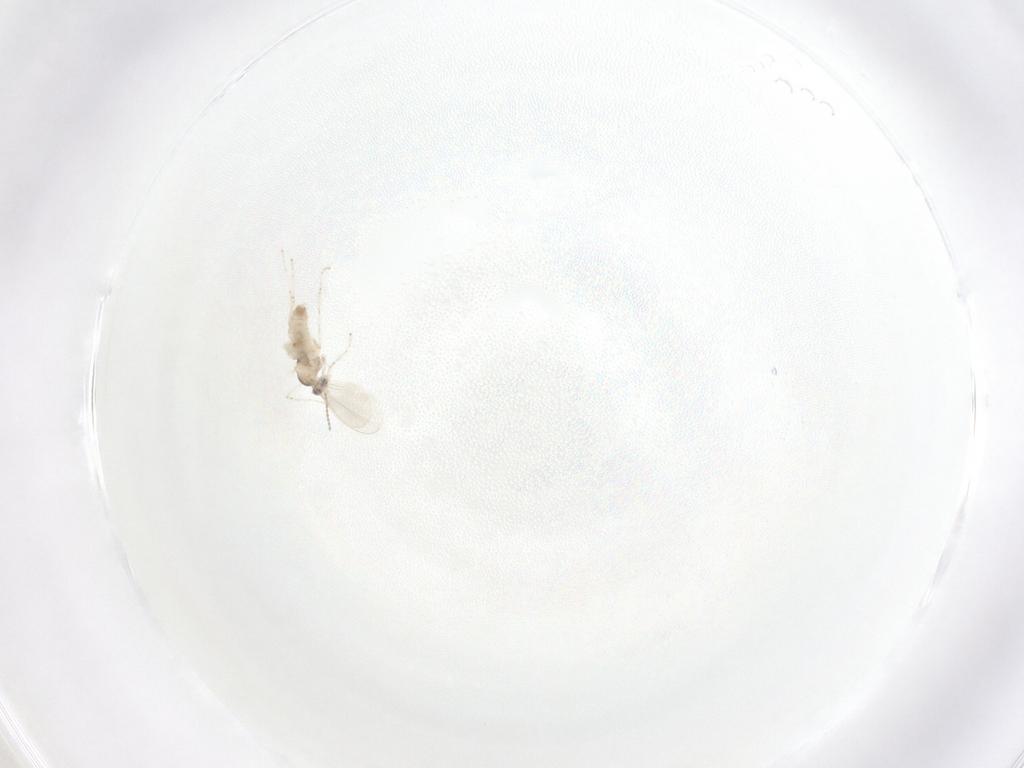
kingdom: Animalia
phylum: Arthropoda
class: Insecta
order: Diptera
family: Cecidomyiidae
